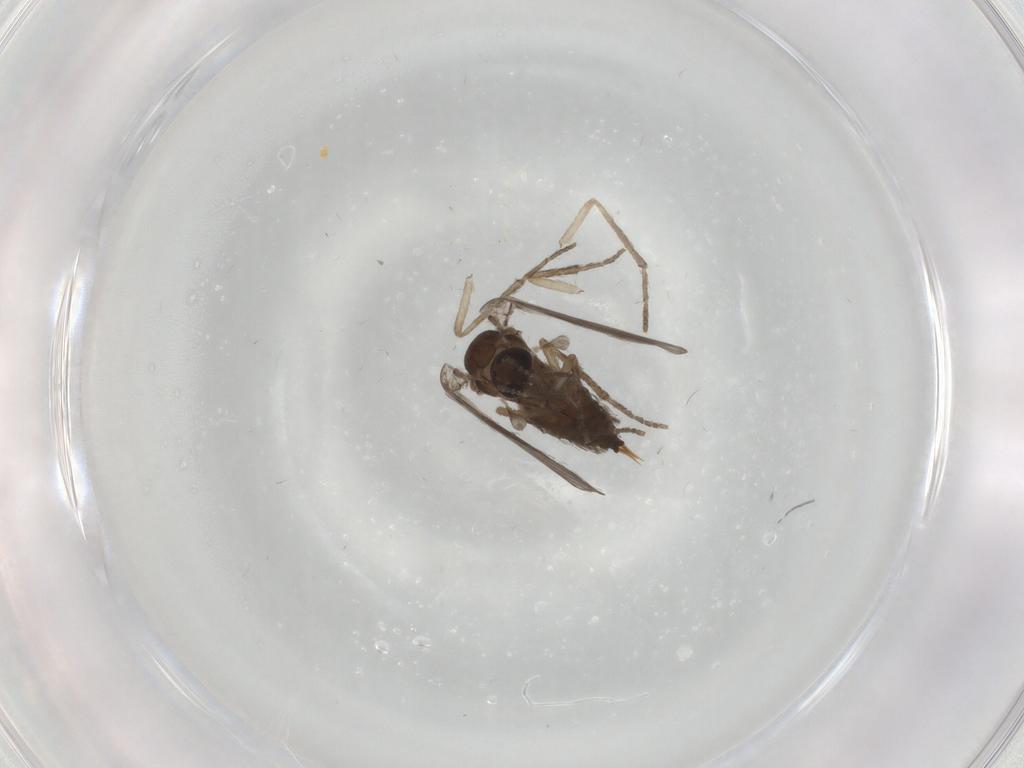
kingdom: Animalia
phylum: Arthropoda
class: Insecta
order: Diptera
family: Psychodidae
